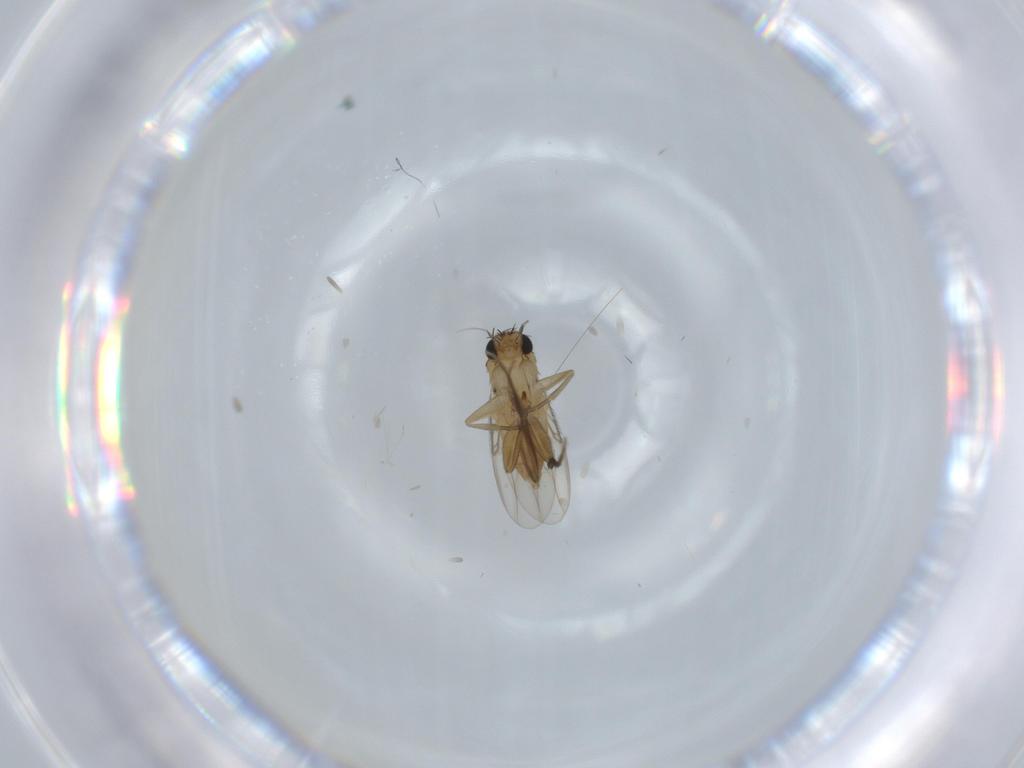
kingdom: Animalia
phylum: Arthropoda
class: Insecta
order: Diptera
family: Phoridae
